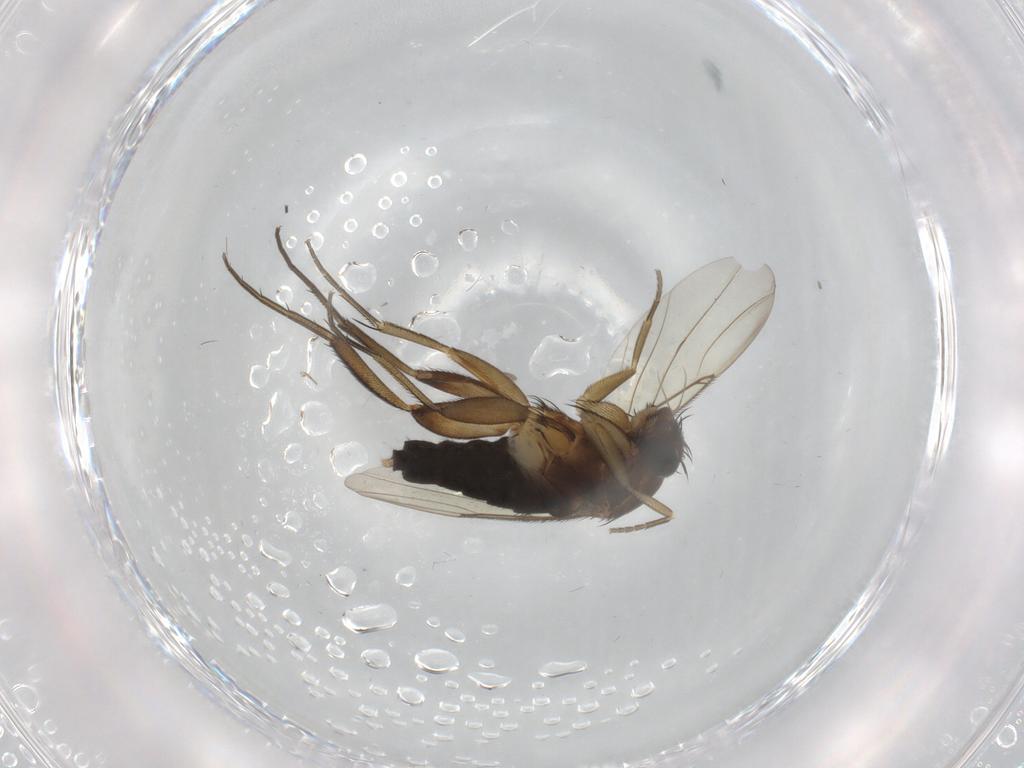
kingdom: Animalia
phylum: Arthropoda
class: Insecta
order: Diptera
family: Phoridae
